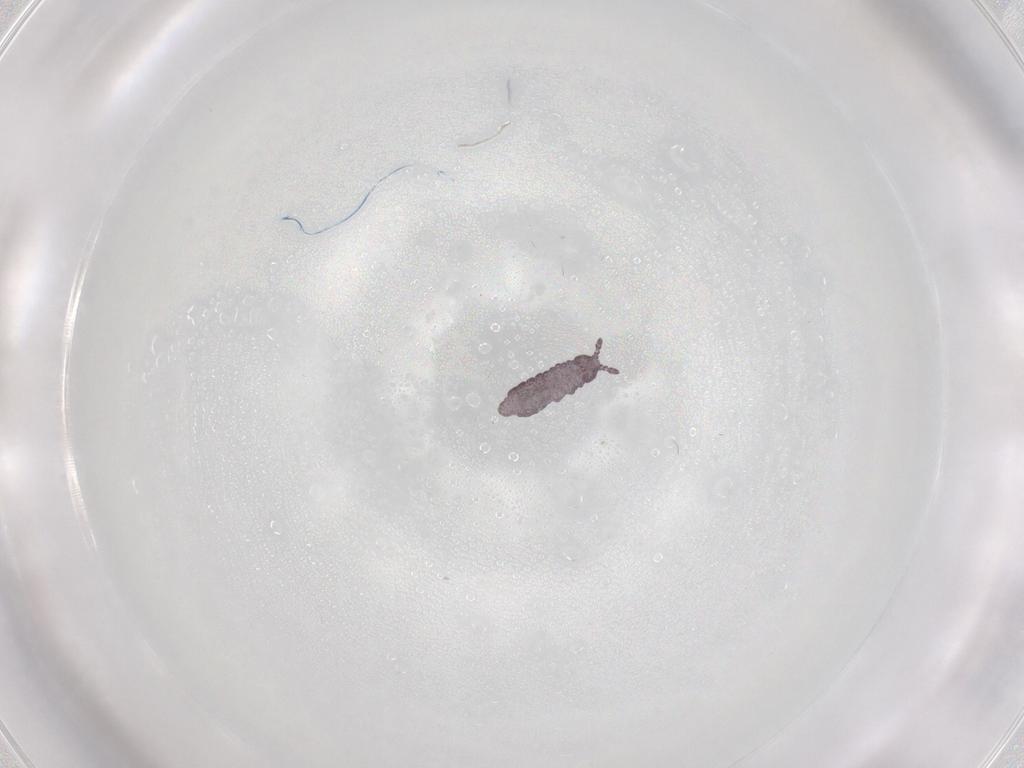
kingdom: Animalia
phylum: Arthropoda
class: Collembola
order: Poduromorpha
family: Hypogastruridae
